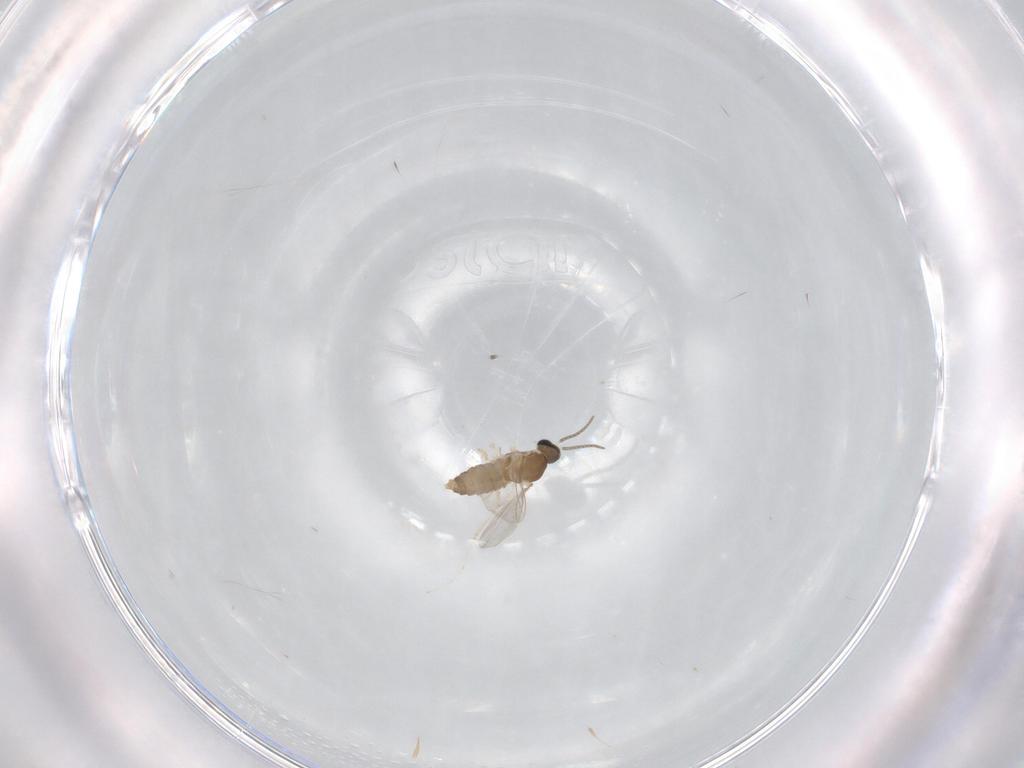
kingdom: Animalia
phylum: Arthropoda
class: Insecta
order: Diptera
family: Cecidomyiidae
